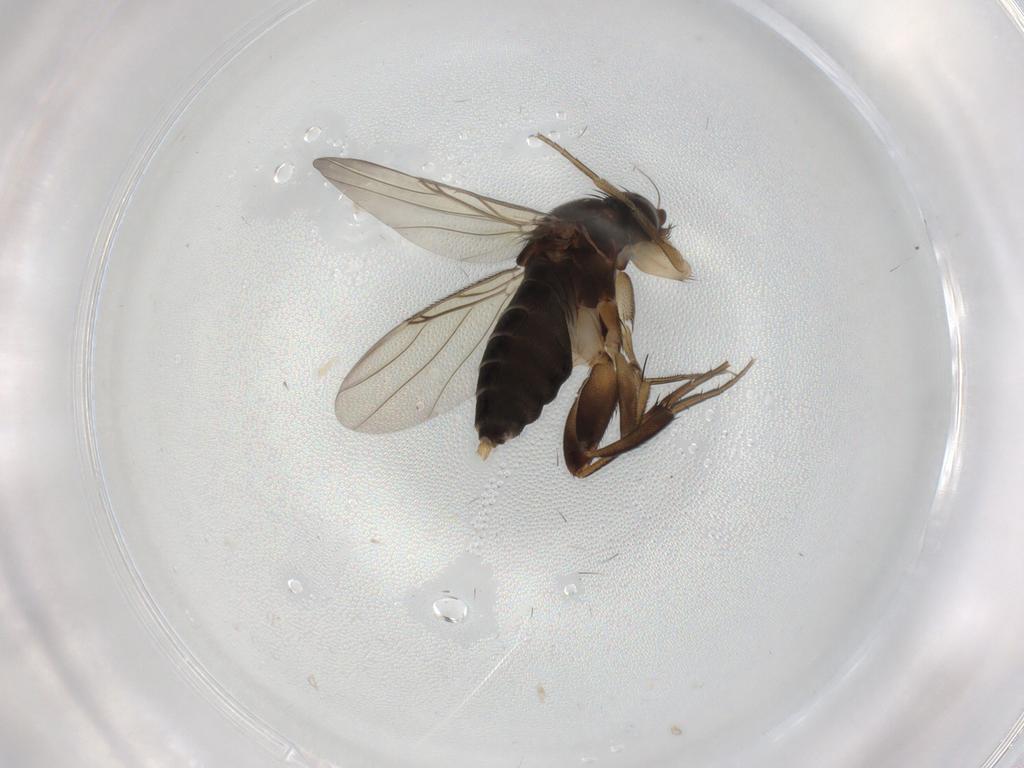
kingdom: Animalia
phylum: Arthropoda
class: Insecta
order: Diptera
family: Phoridae
